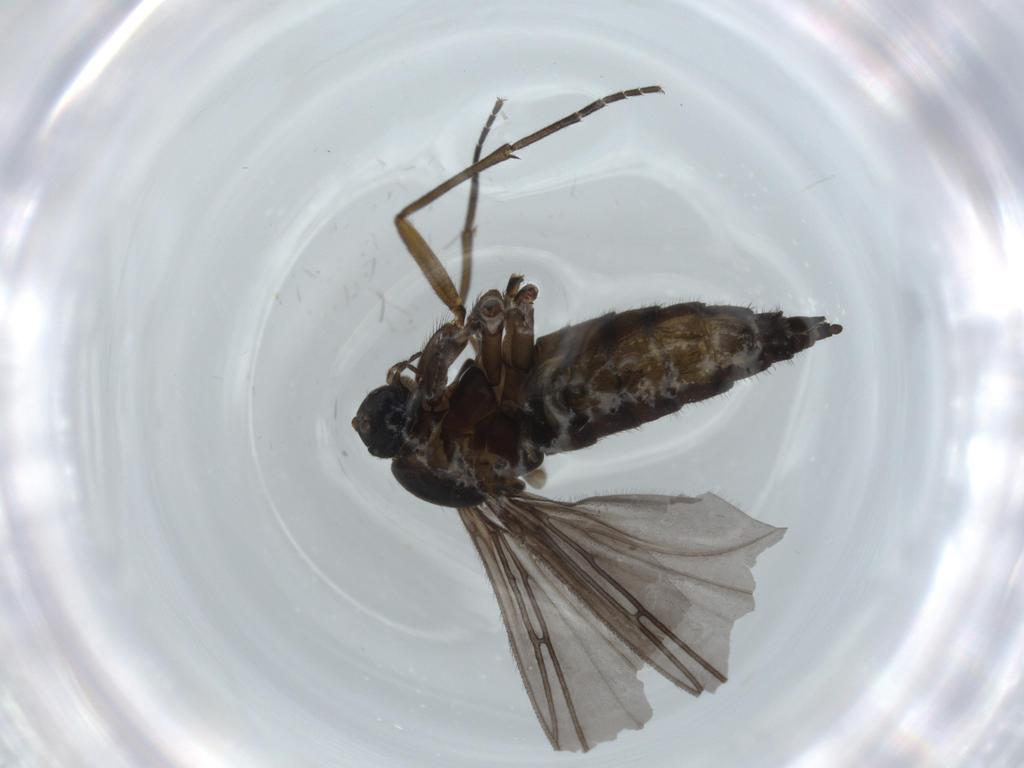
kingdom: Animalia
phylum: Arthropoda
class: Insecta
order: Diptera
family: Sciaridae
